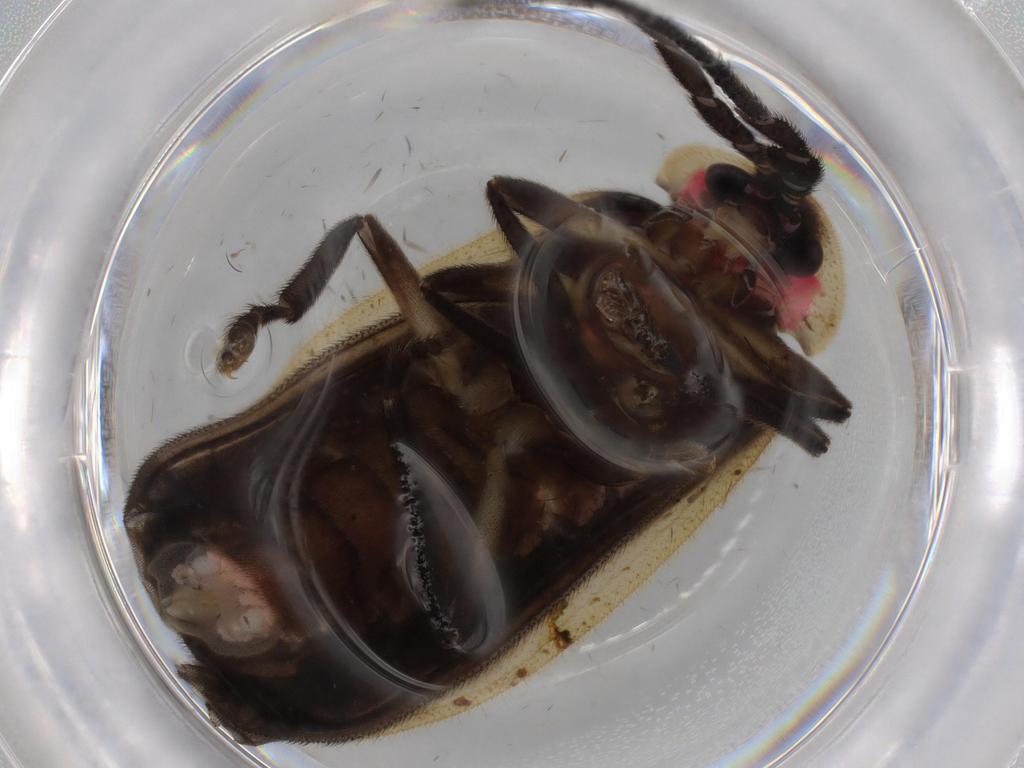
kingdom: Animalia
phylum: Arthropoda
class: Insecta
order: Coleoptera
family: Lampyridae
